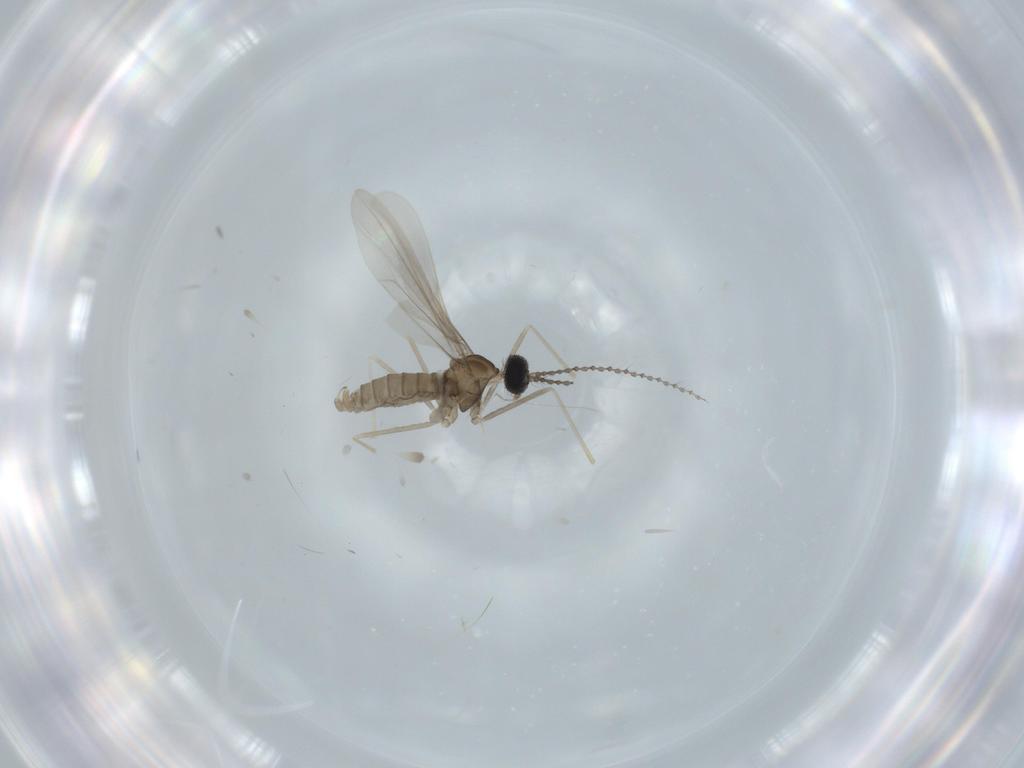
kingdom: Animalia
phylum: Arthropoda
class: Insecta
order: Diptera
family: Cecidomyiidae
